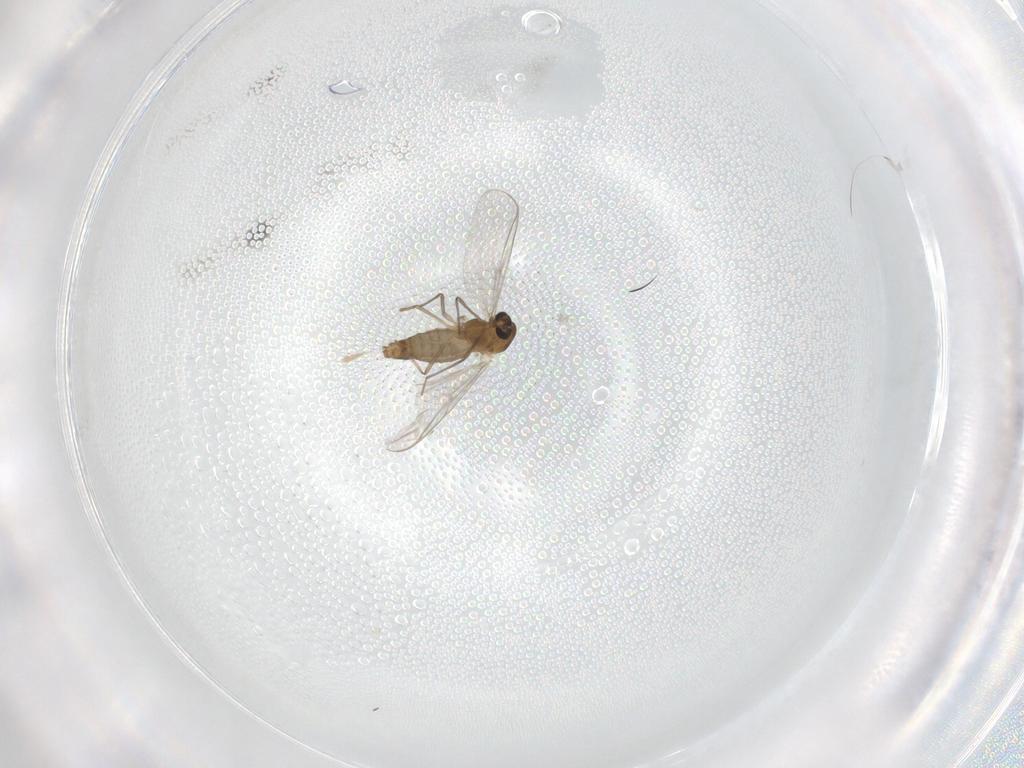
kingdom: Animalia
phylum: Arthropoda
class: Insecta
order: Diptera
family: Chironomidae
